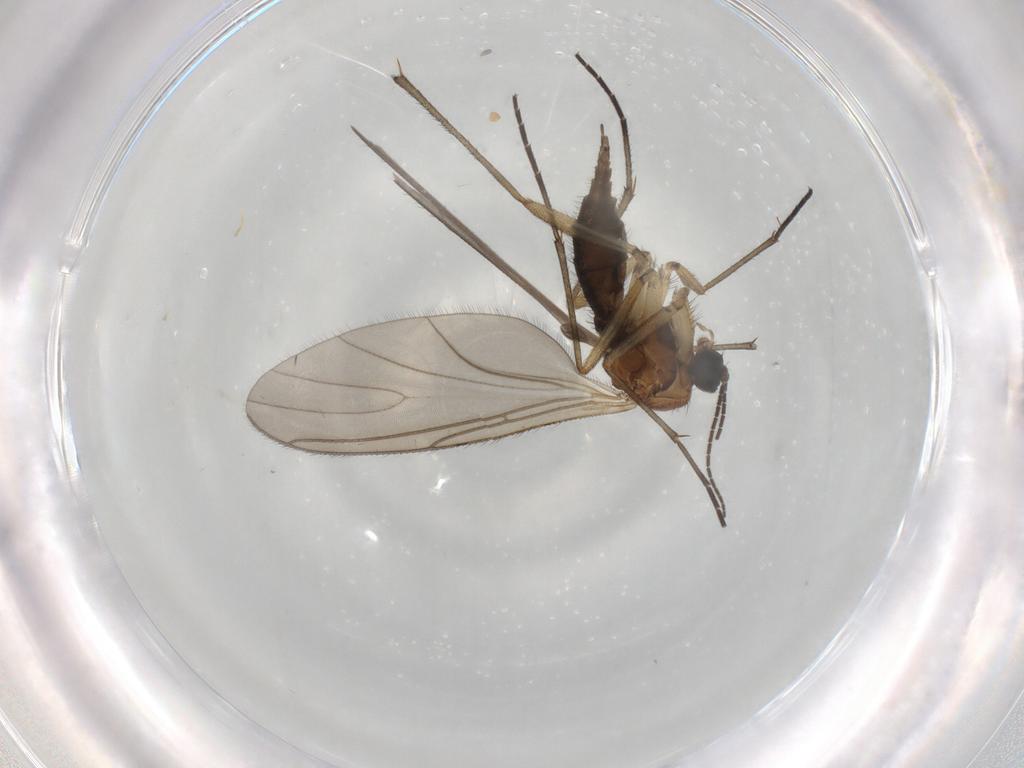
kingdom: Animalia
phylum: Arthropoda
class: Insecta
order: Diptera
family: Sciaridae
